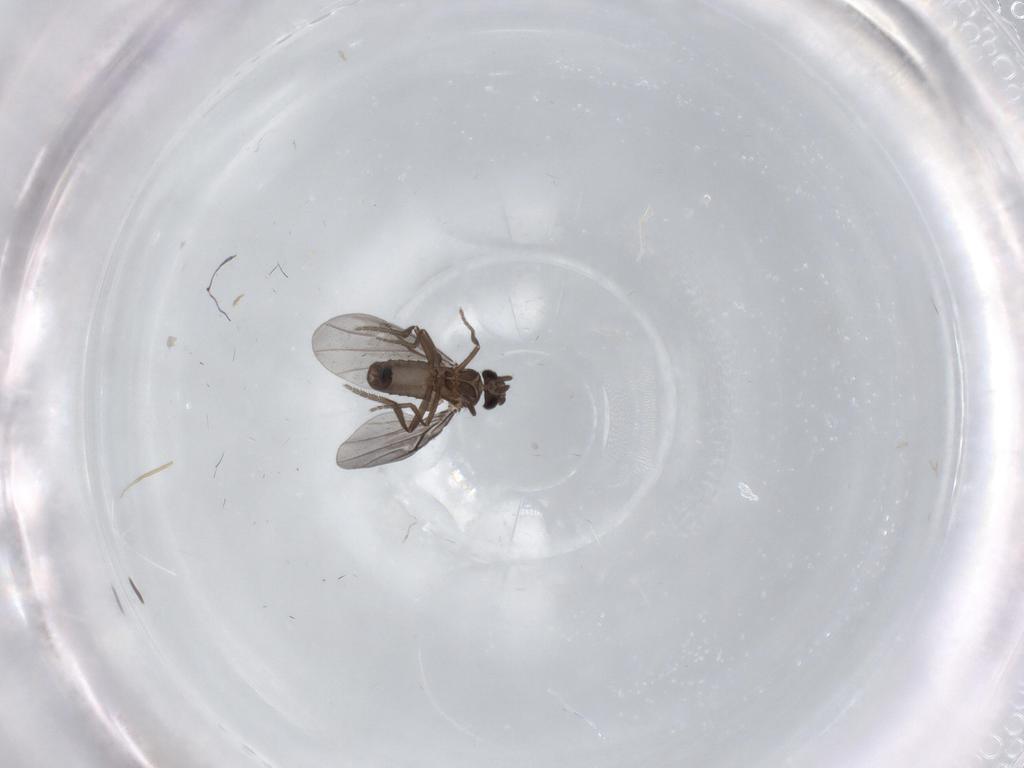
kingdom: Animalia
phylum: Arthropoda
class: Insecta
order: Diptera
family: Phoridae
